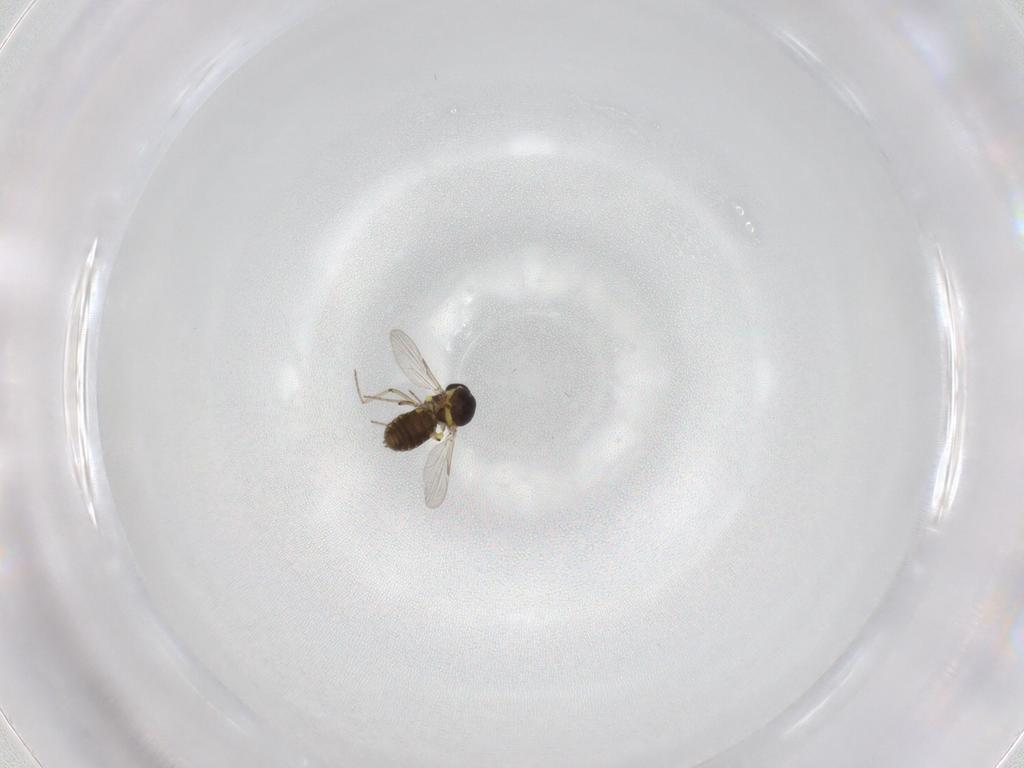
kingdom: Animalia
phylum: Arthropoda
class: Insecta
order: Diptera
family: Ceratopogonidae
